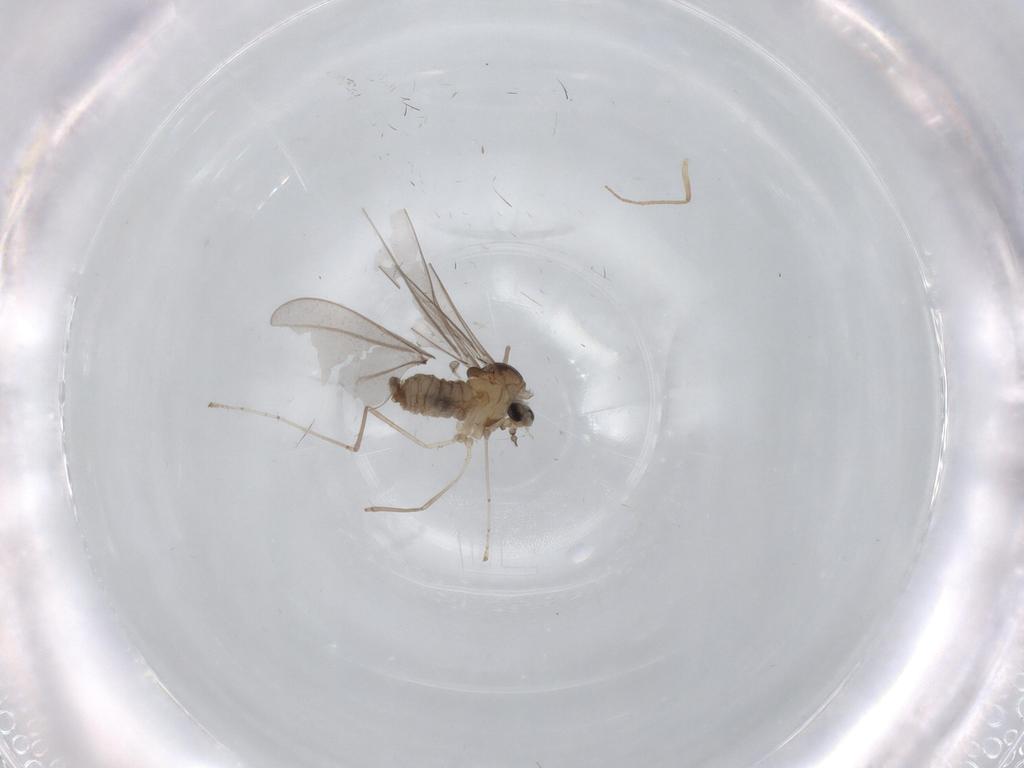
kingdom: Animalia
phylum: Arthropoda
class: Insecta
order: Diptera
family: Cecidomyiidae
